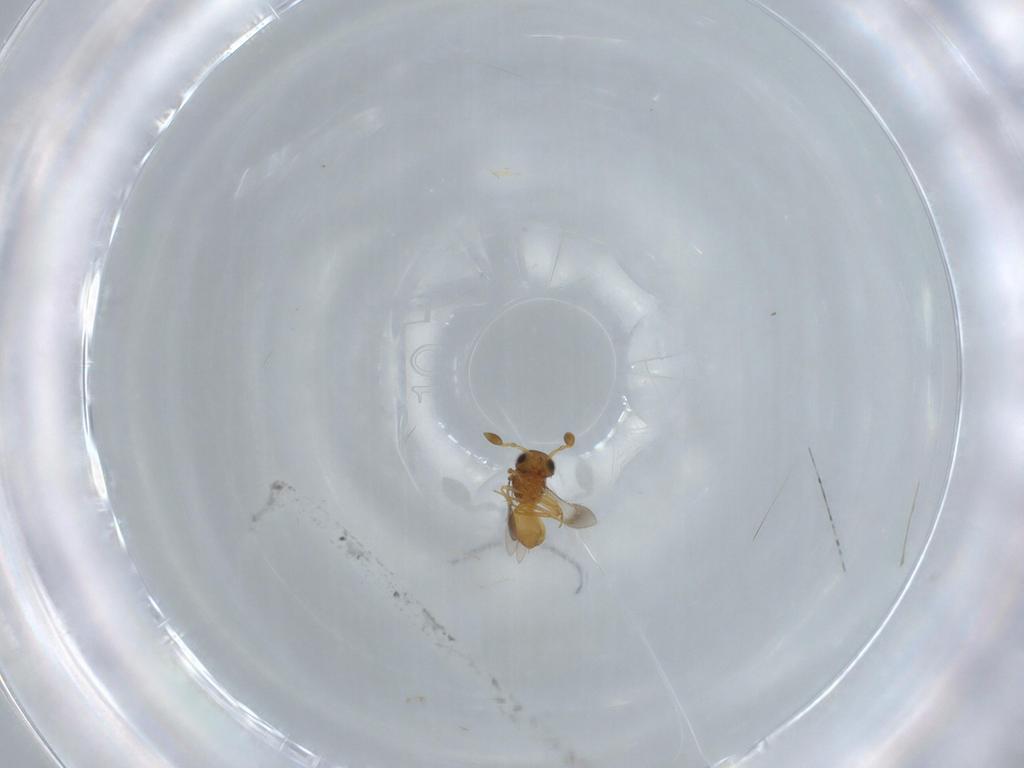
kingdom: Animalia
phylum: Arthropoda
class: Insecta
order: Hymenoptera
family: Scelionidae
